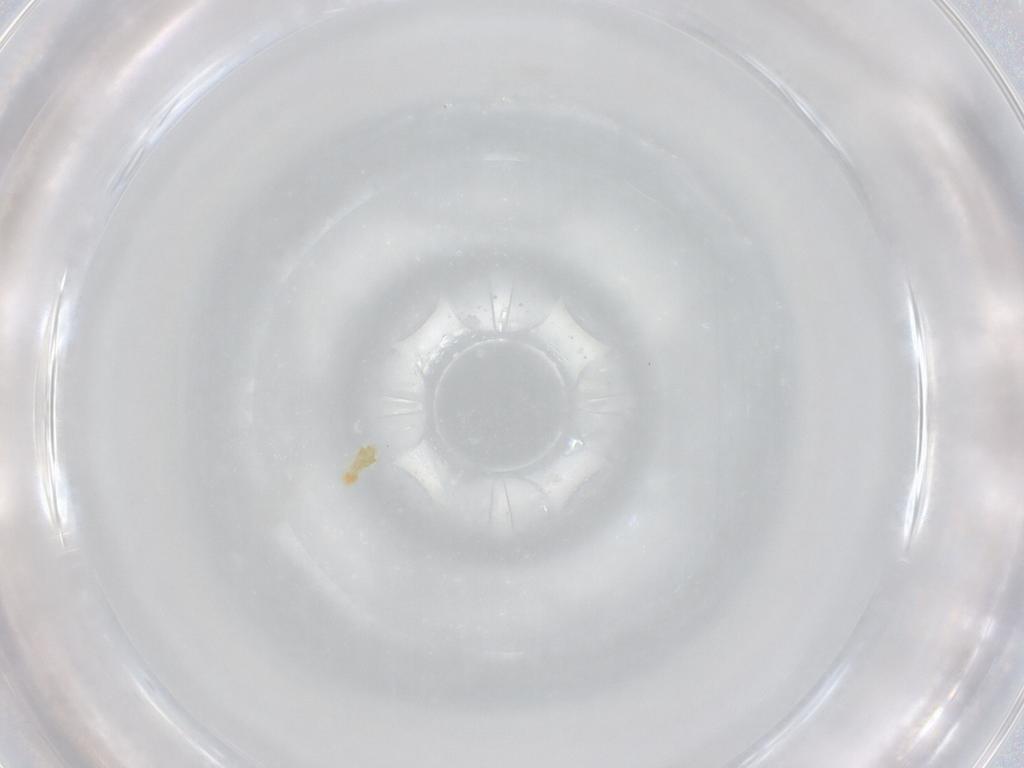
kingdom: Animalia
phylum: Arthropoda
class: Arachnida
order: Trombidiformes
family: Eupodidae
